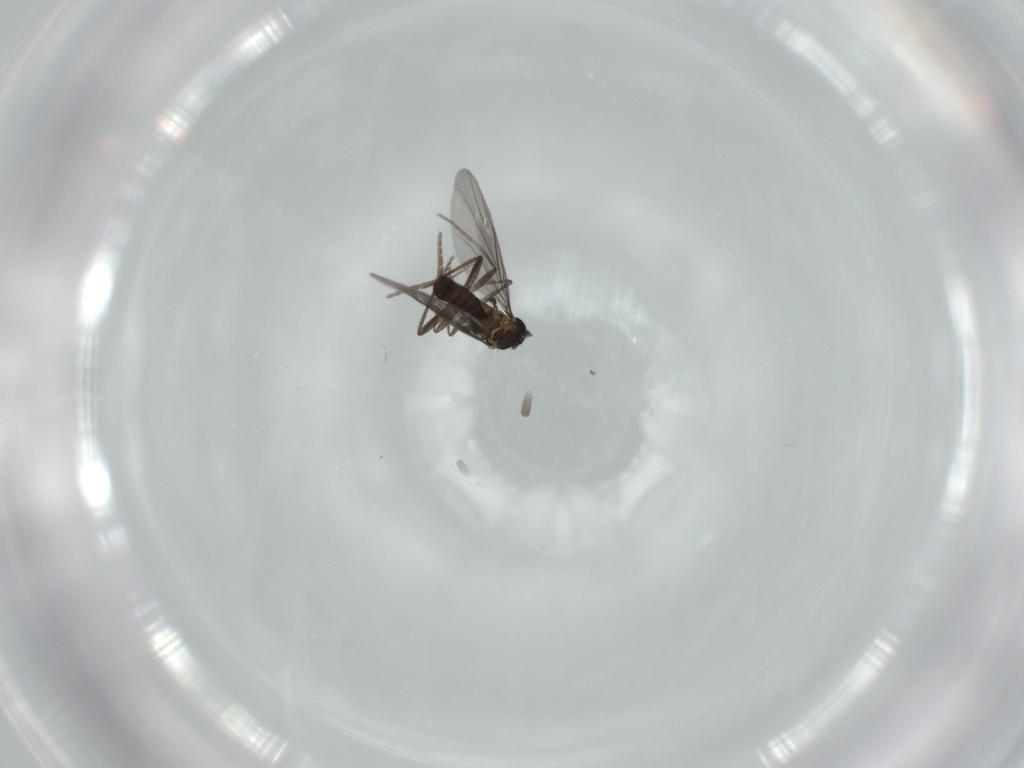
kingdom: Animalia
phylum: Arthropoda
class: Insecta
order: Diptera
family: Phoridae
